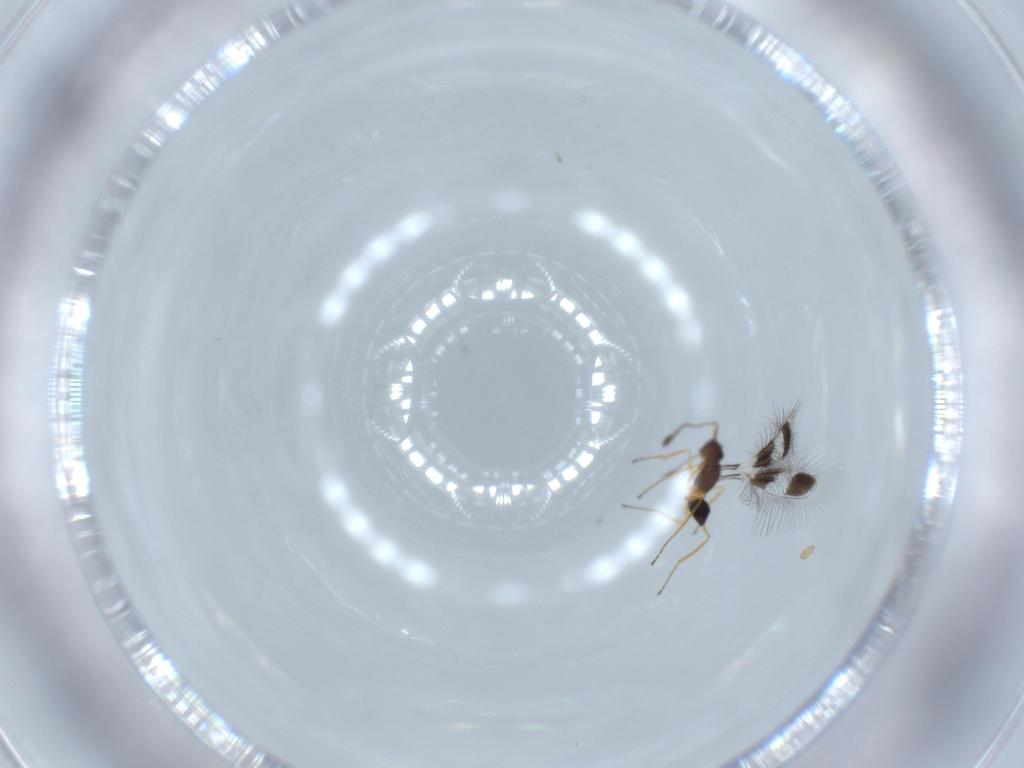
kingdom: Animalia
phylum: Arthropoda
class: Insecta
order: Hymenoptera
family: Mymaridae
